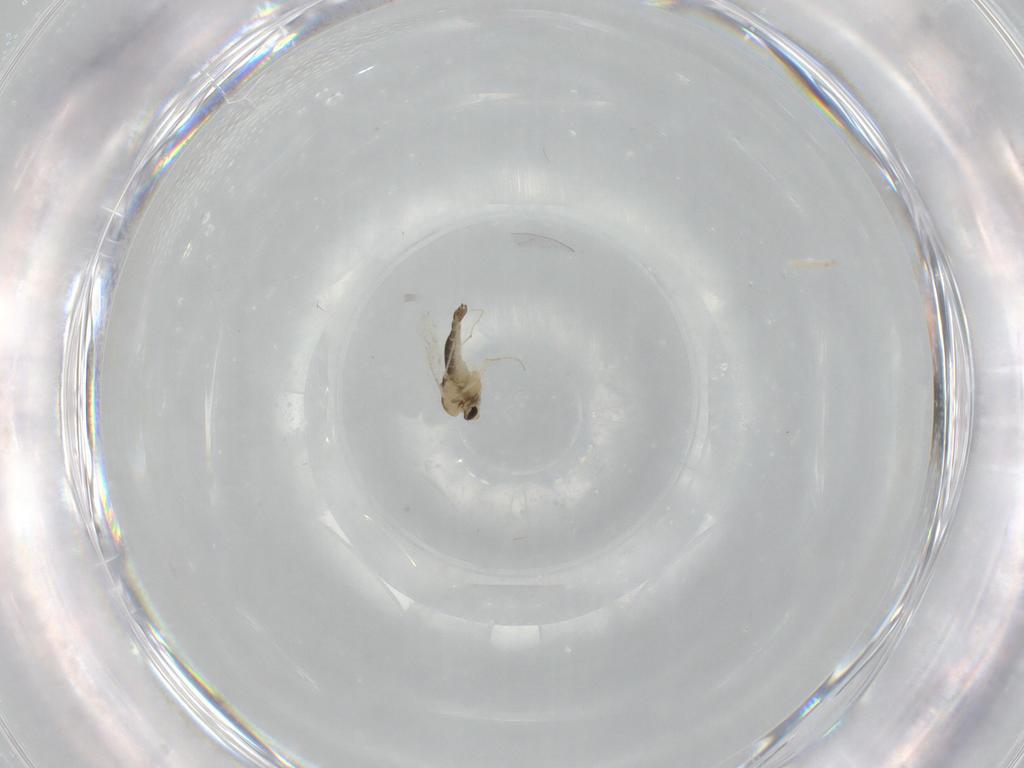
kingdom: Animalia
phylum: Arthropoda
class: Insecta
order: Diptera
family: Chironomidae
